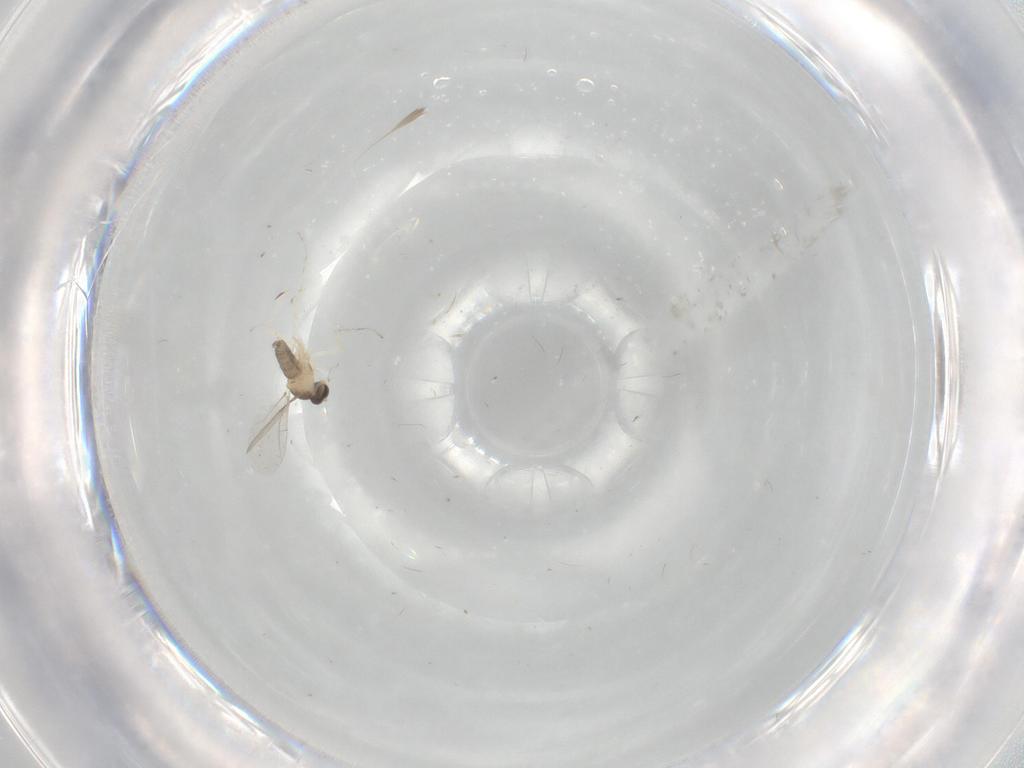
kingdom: Animalia
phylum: Arthropoda
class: Insecta
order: Diptera
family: Cecidomyiidae
